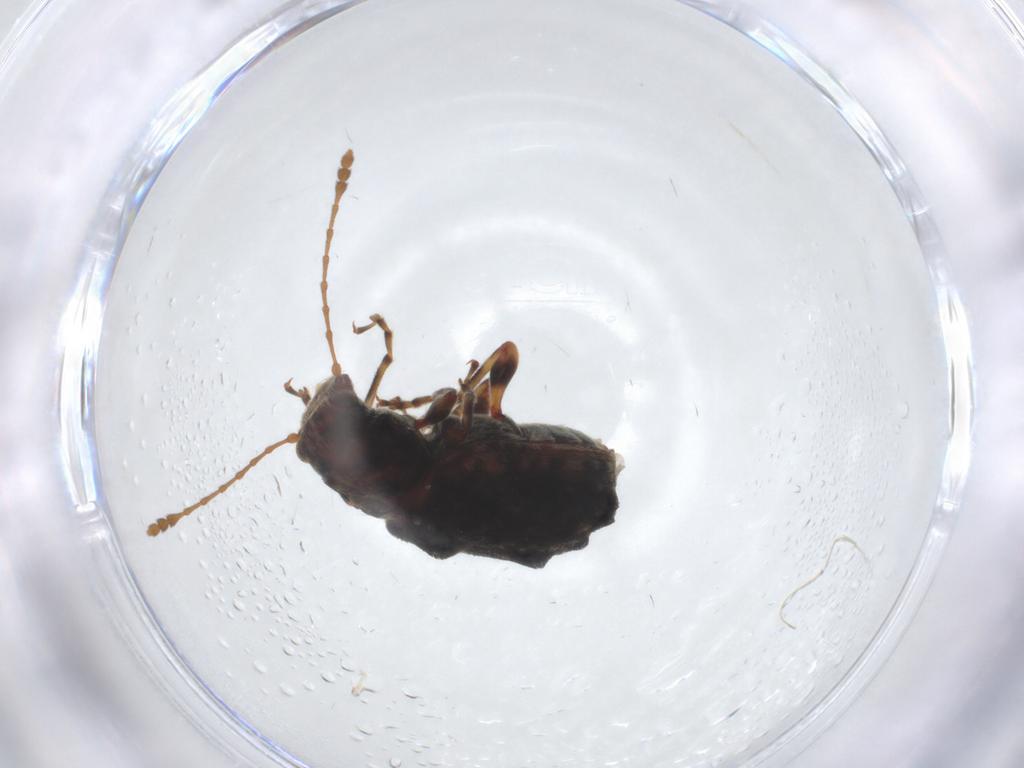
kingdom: Animalia
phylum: Arthropoda
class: Insecta
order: Coleoptera
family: Anthribidae
